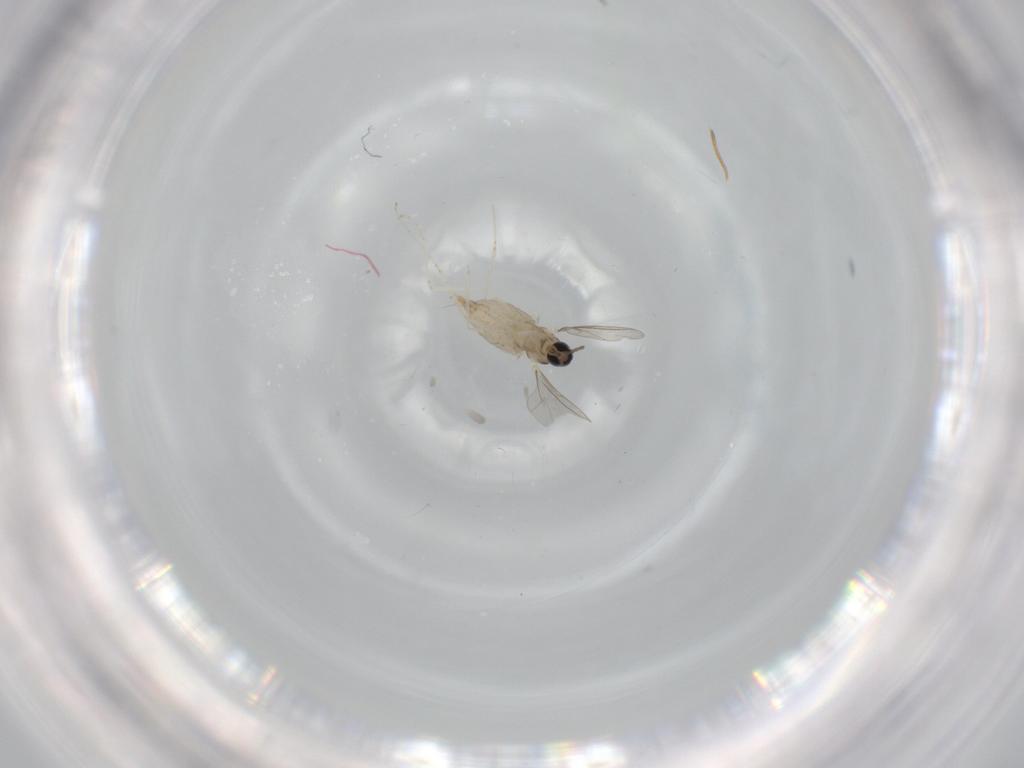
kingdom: Animalia
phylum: Arthropoda
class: Insecta
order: Diptera
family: Cecidomyiidae
